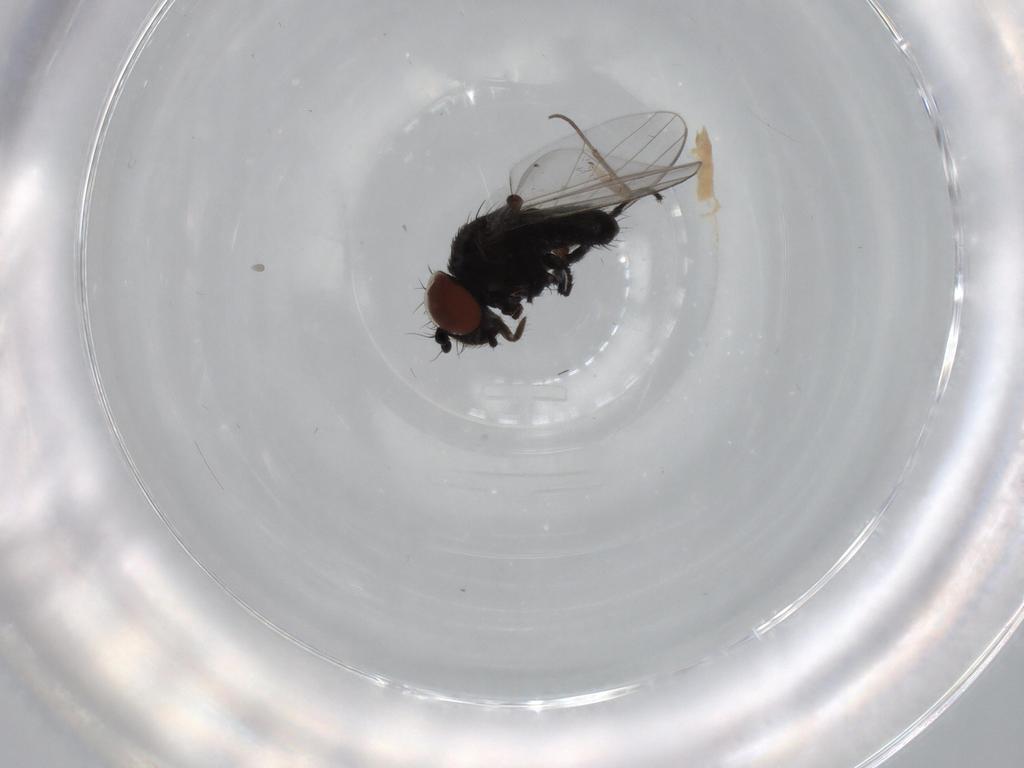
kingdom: Animalia
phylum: Arthropoda
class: Insecta
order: Diptera
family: Milichiidae
